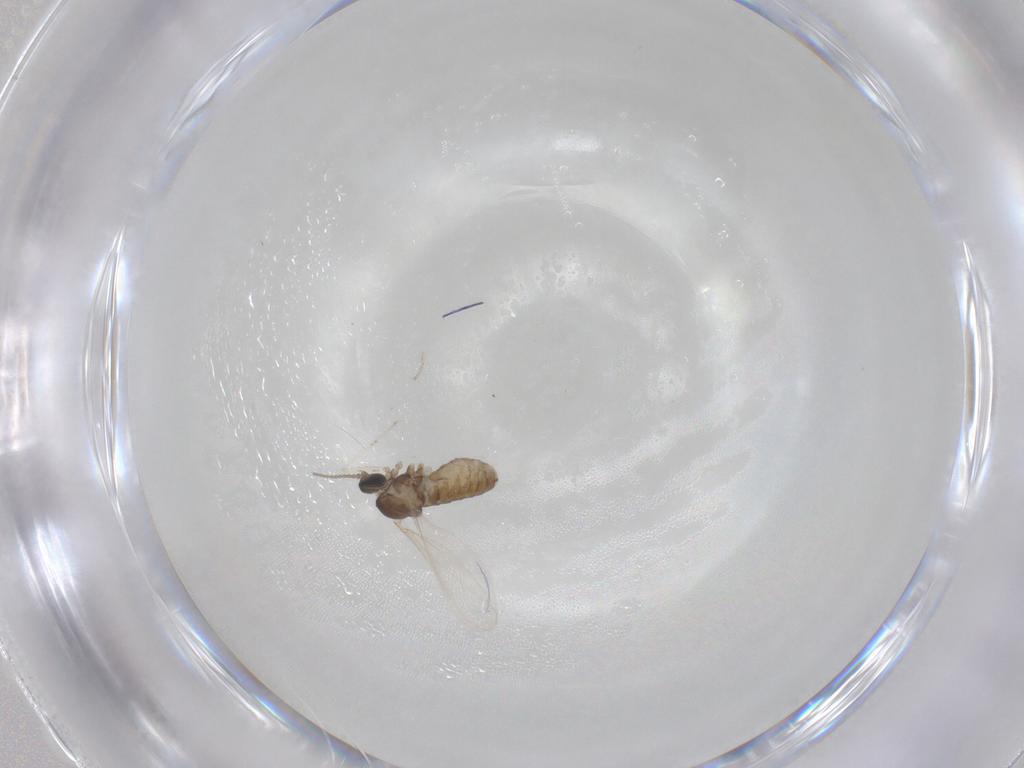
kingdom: Animalia
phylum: Arthropoda
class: Insecta
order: Diptera
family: Cecidomyiidae
